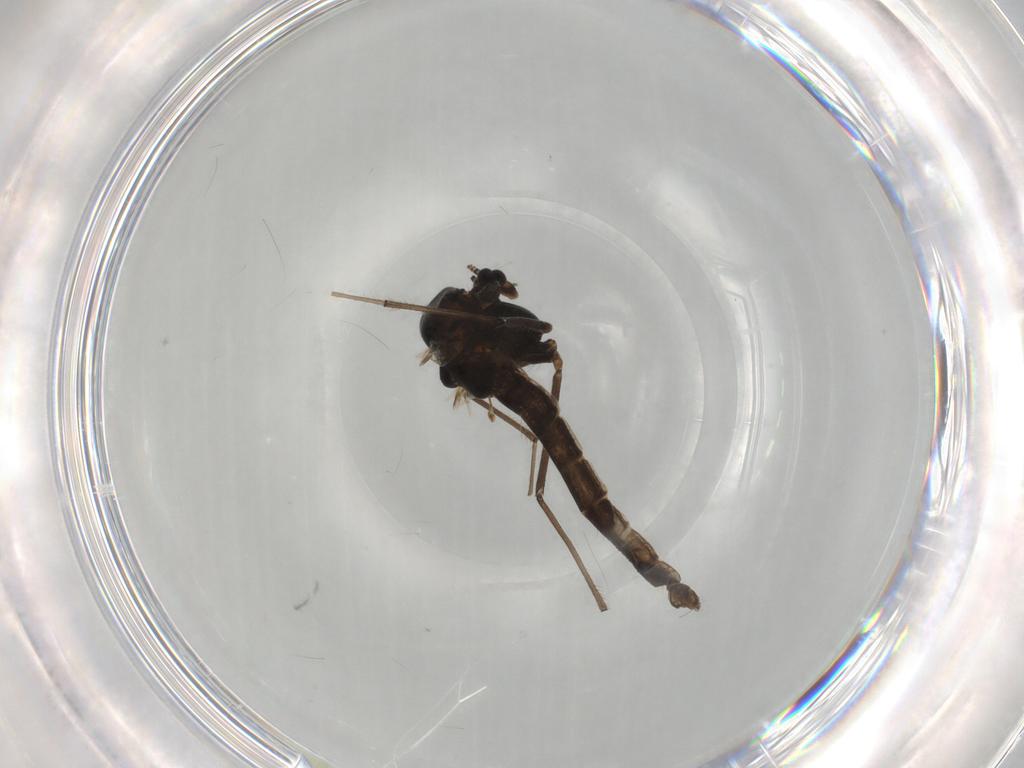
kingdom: Animalia
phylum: Arthropoda
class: Insecta
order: Diptera
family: Chironomidae
